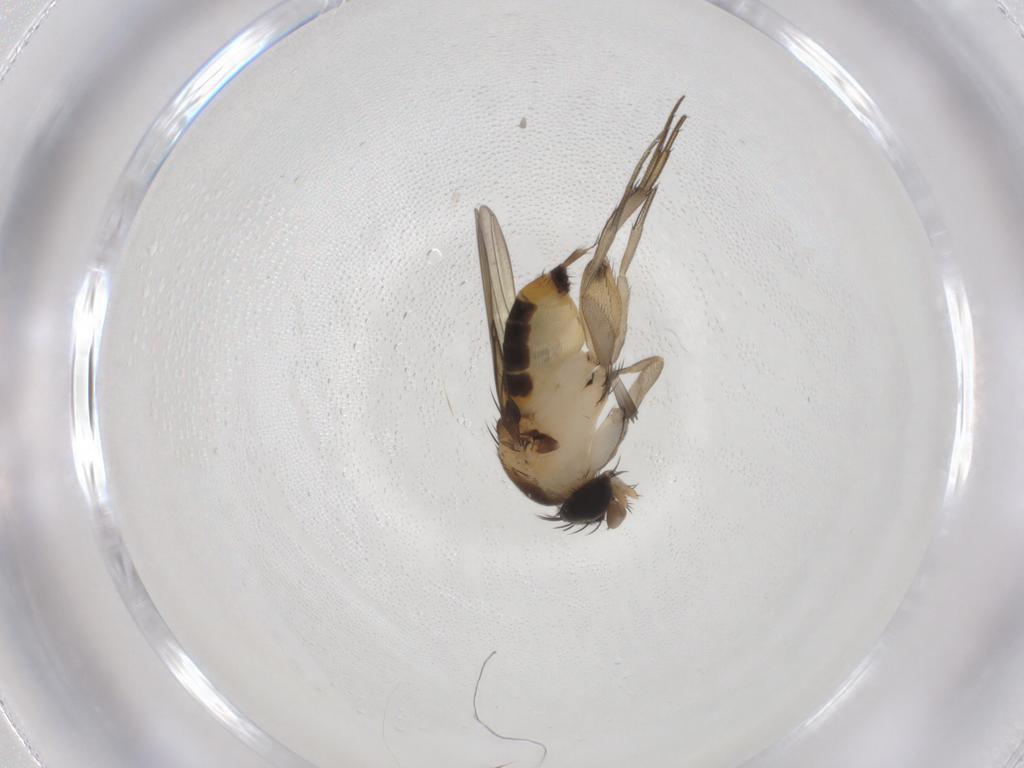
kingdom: Animalia
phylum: Arthropoda
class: Insecta
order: Diptera
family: Phoridae
